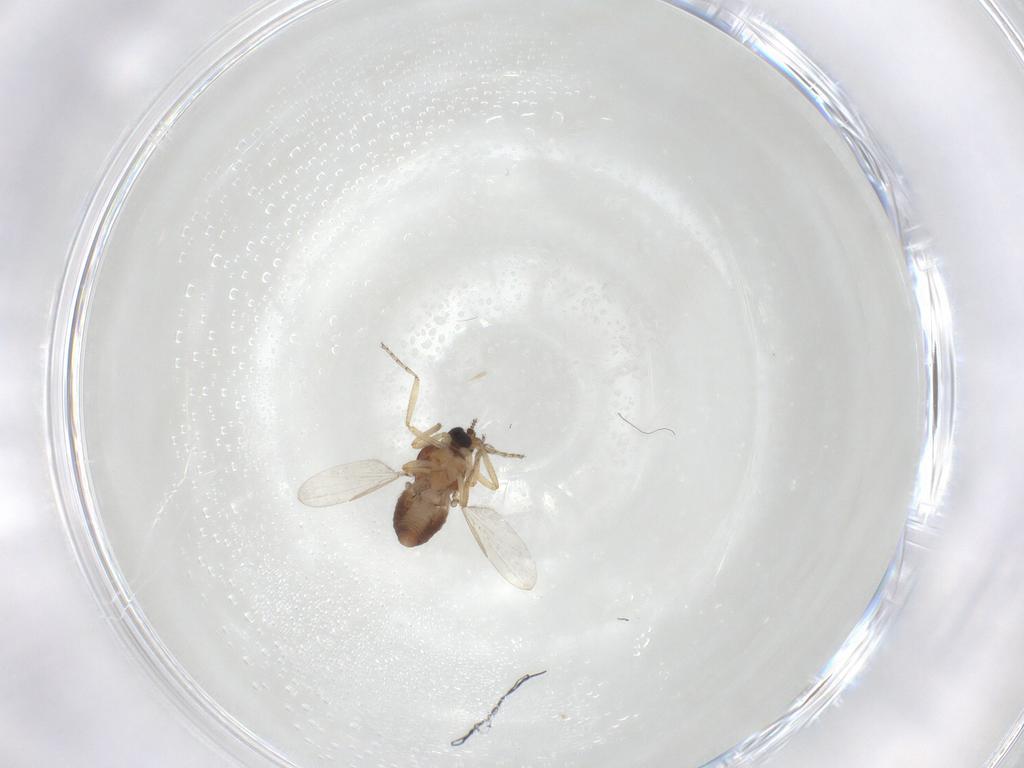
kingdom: Animalia
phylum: Arthropoda
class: Insecta
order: Diptera
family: Ceratopogonidae
